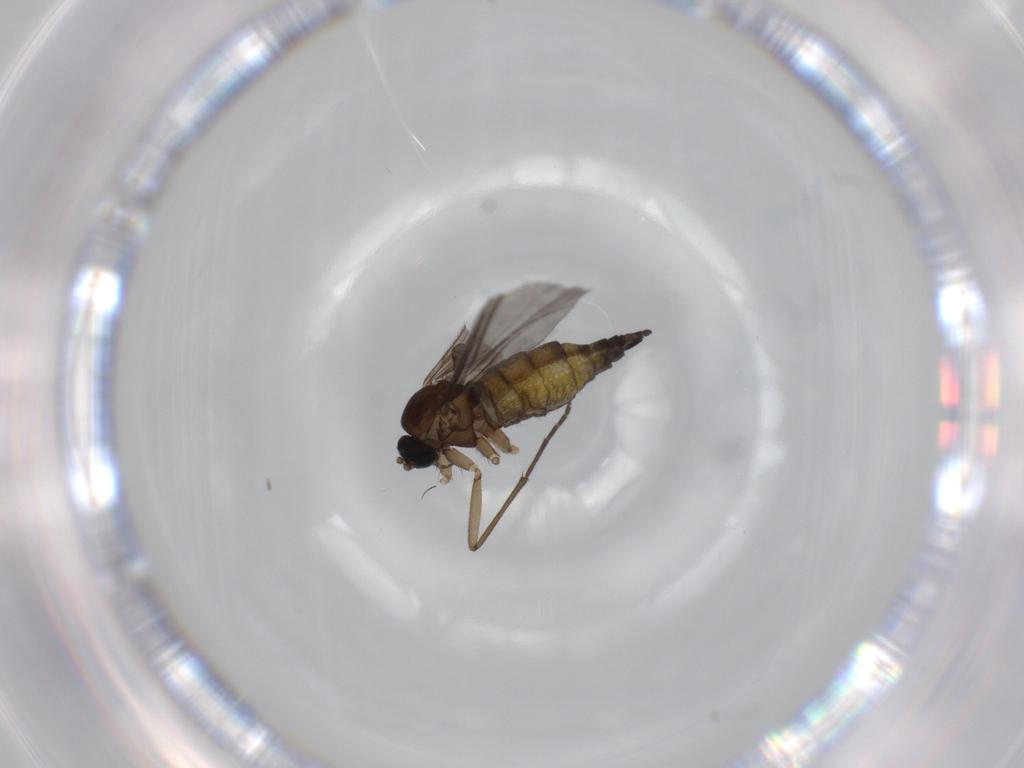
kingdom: Animalia
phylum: Arthropoda
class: Insecta
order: Diptera
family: Sciaridae
